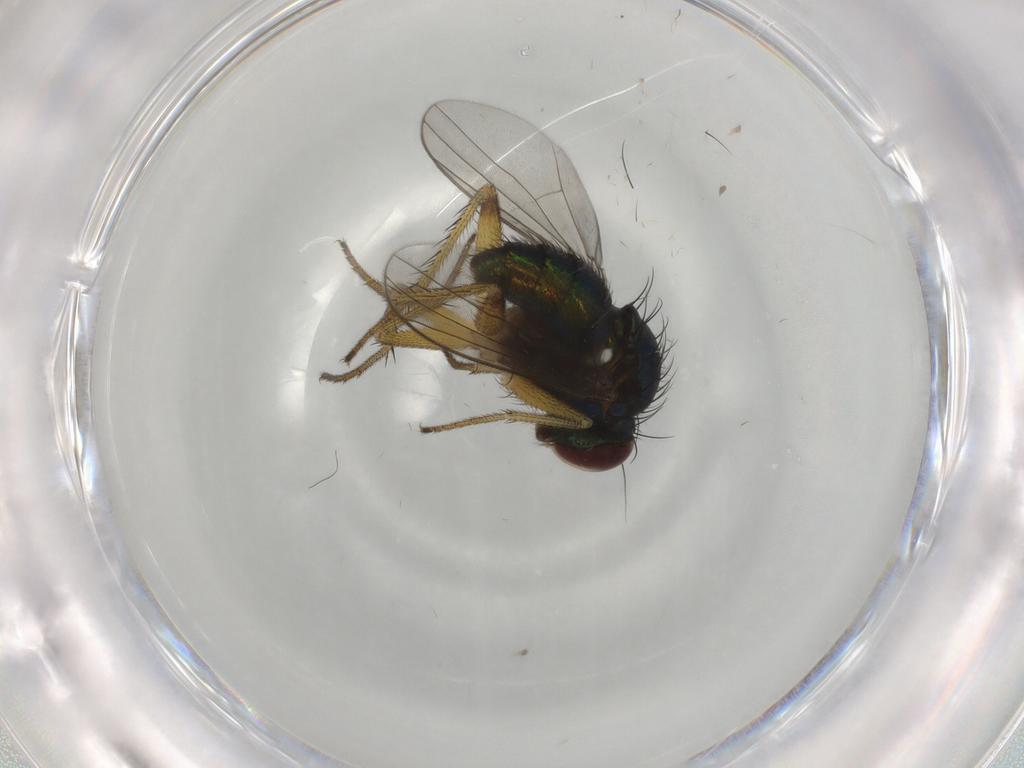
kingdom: Animalia
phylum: Arthropoda
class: Insecta
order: Diptera
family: Dolichopodidae
